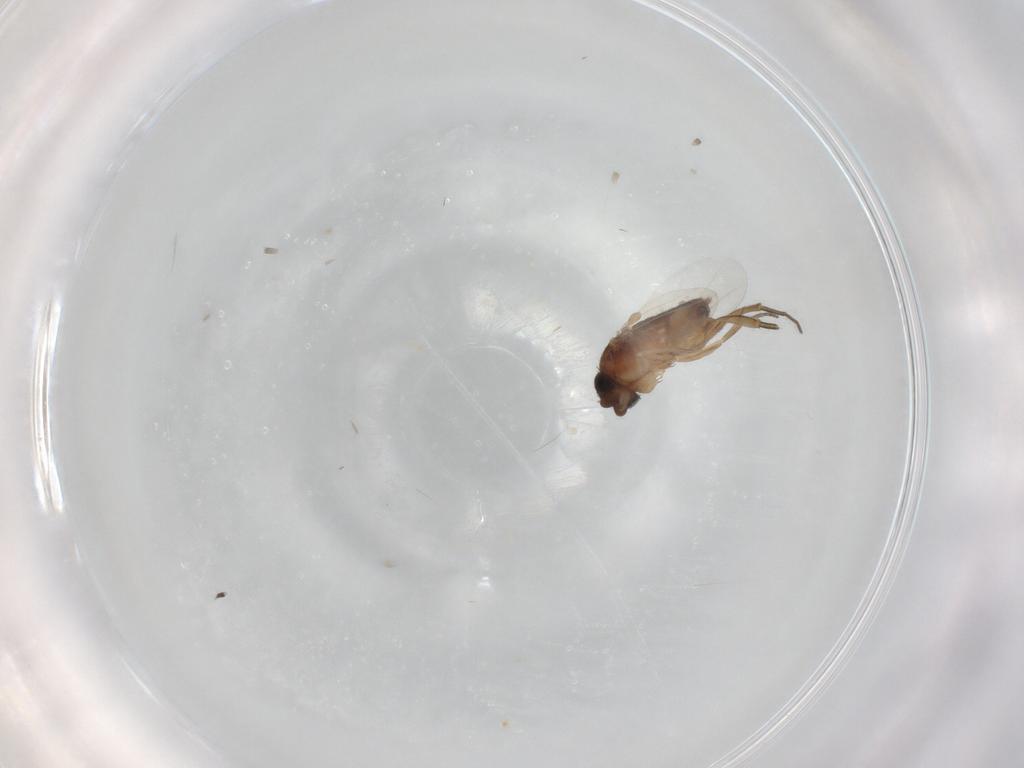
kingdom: Animalia
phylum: Arthropoda
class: Insecta
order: Diptera
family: Phoridae
